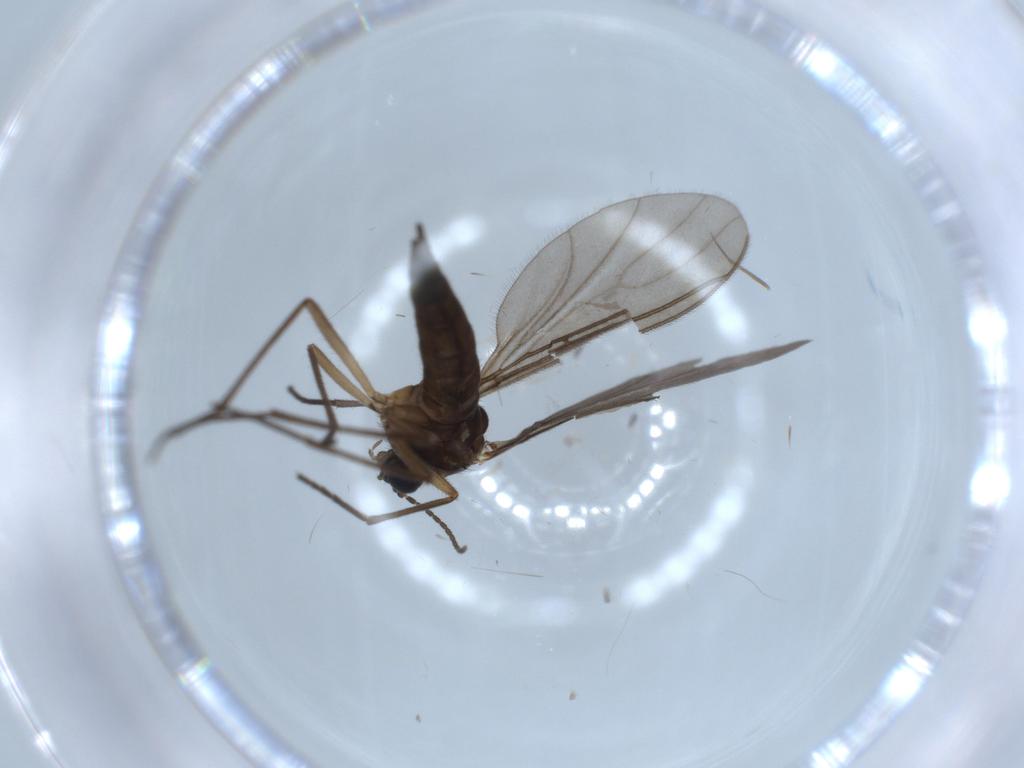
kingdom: Animalia
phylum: Arthropoda
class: Insecta
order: Diptera
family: Sciaridae
